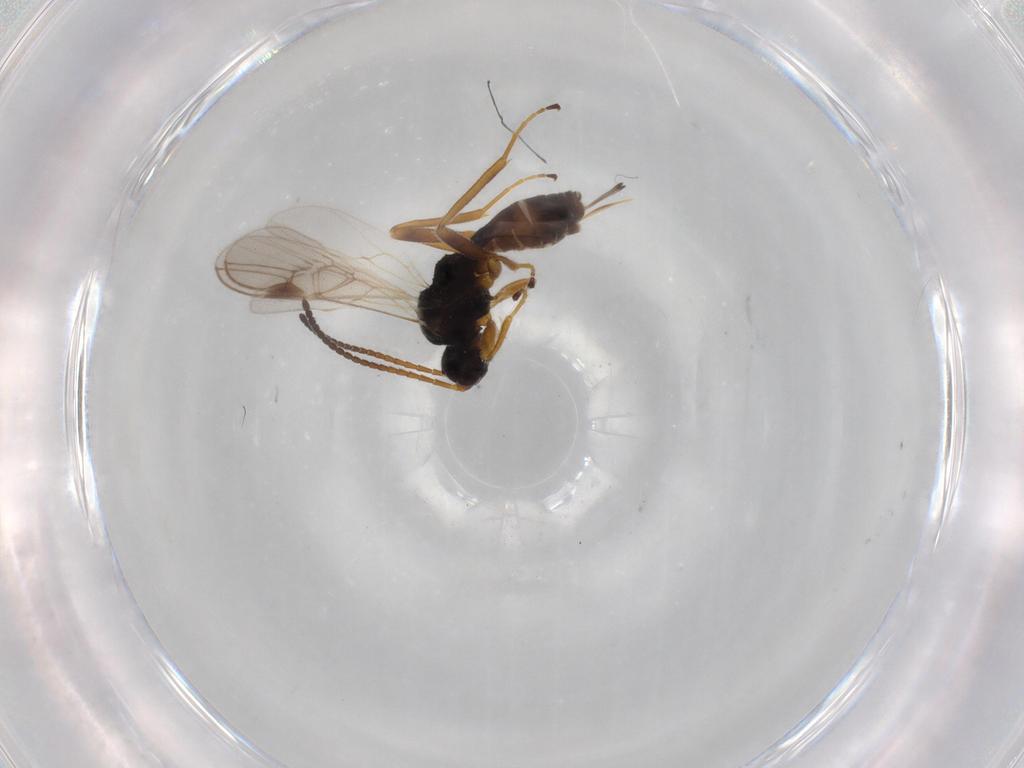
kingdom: Animalia
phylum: Arthropoda
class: Insecta
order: Hymenoptera
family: Braconidae
